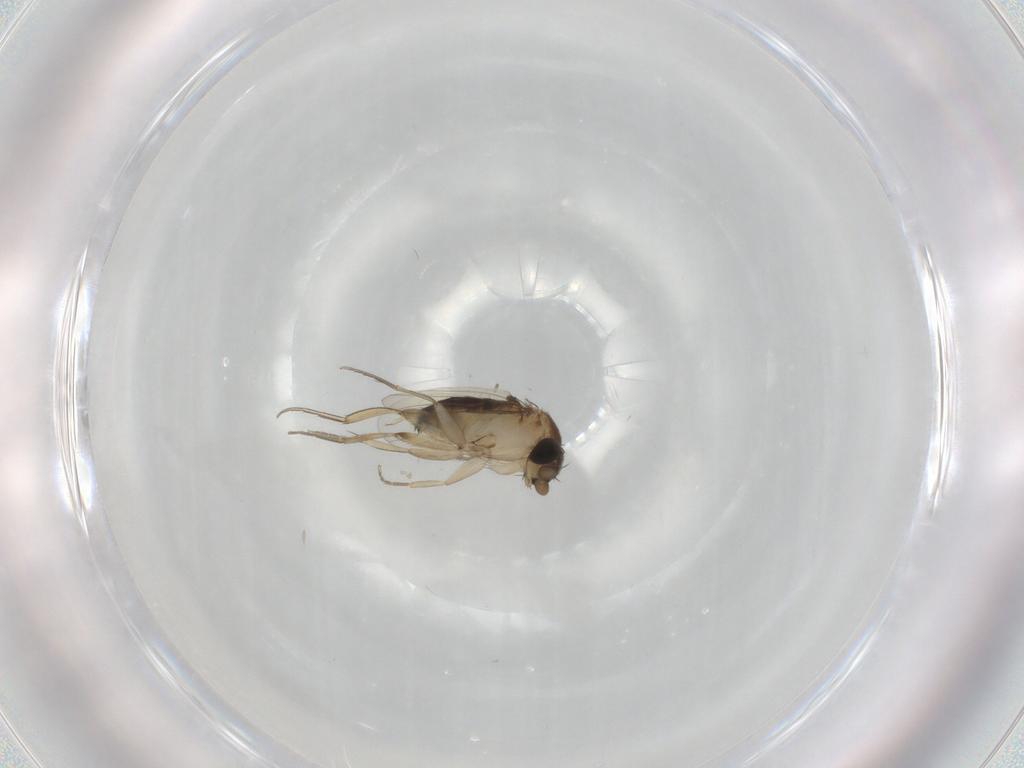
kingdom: Animalia
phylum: Arthropoda
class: Insecta
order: Diptera
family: Phoridae
